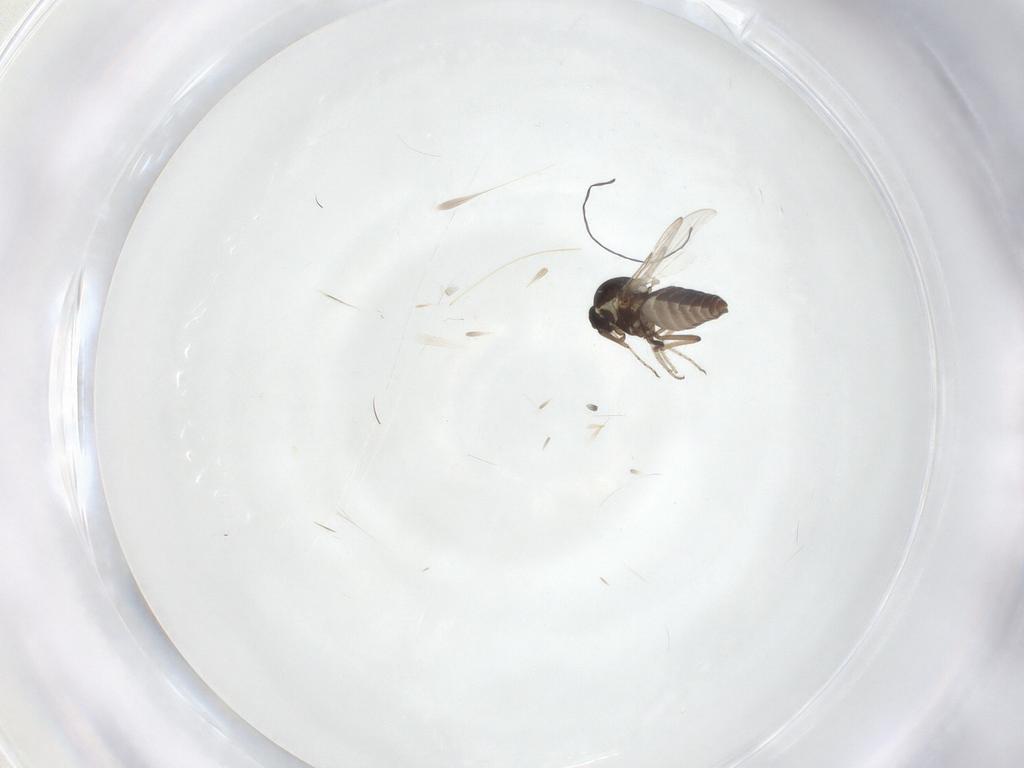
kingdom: Animalia
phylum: Arthropoda
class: Insecta
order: Diptera
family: Ceratopogonidae
